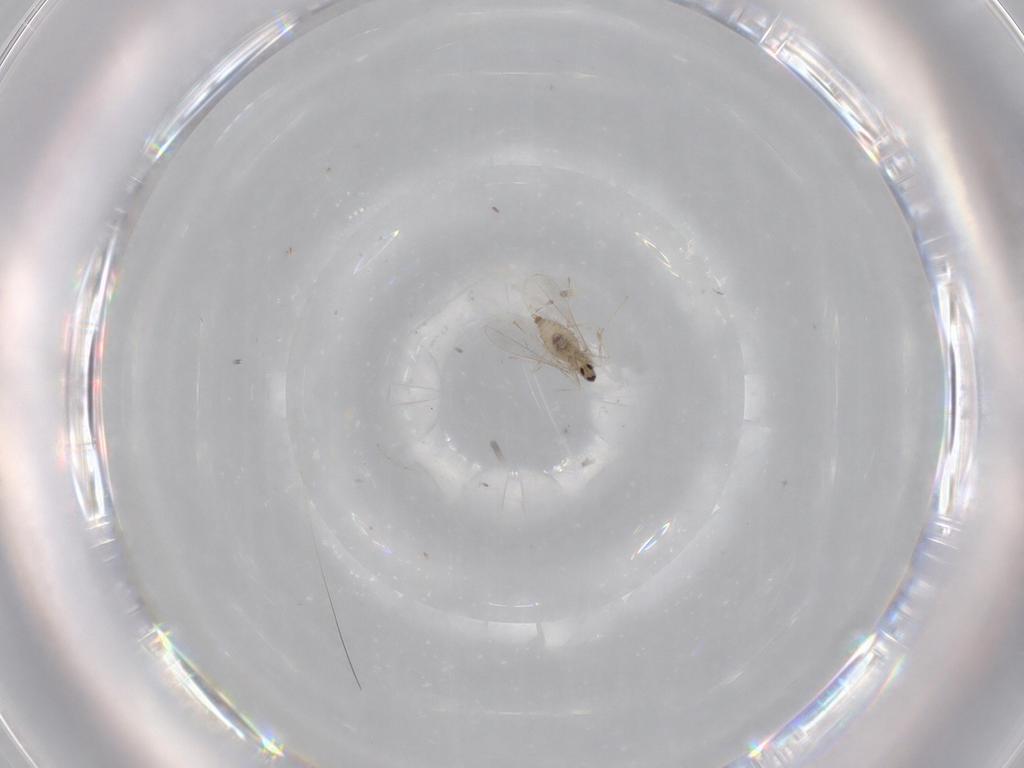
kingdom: Animalia
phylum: Arthropoda
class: Insecta
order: Diptera
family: Cecidomyiidae
